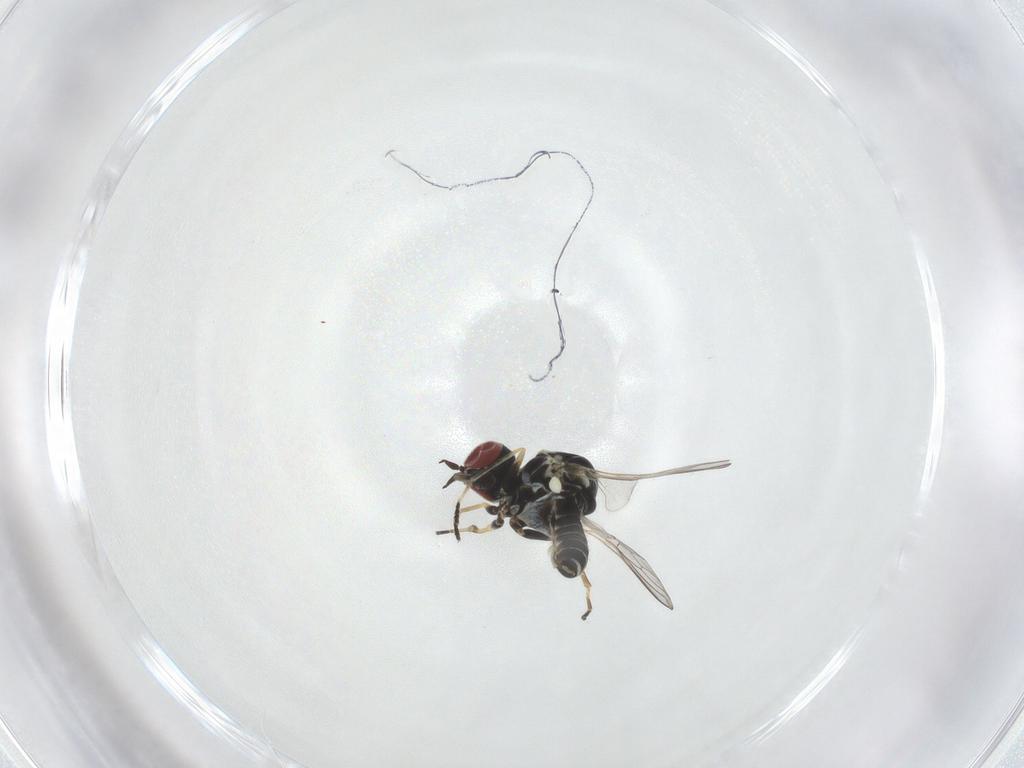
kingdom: Animalia
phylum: Arthropoda
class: Insecta
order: Diptera
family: Mythicomyiidae
